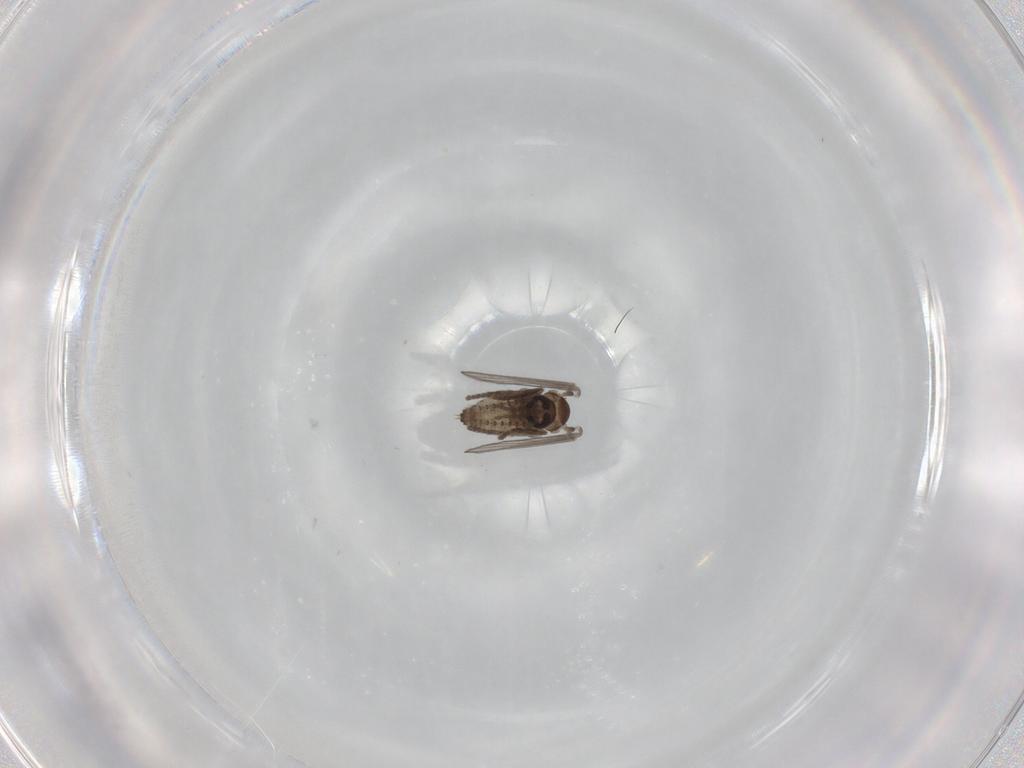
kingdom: Animalia
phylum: Arthropoda
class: Insecta
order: Diptera
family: Psychodidae
